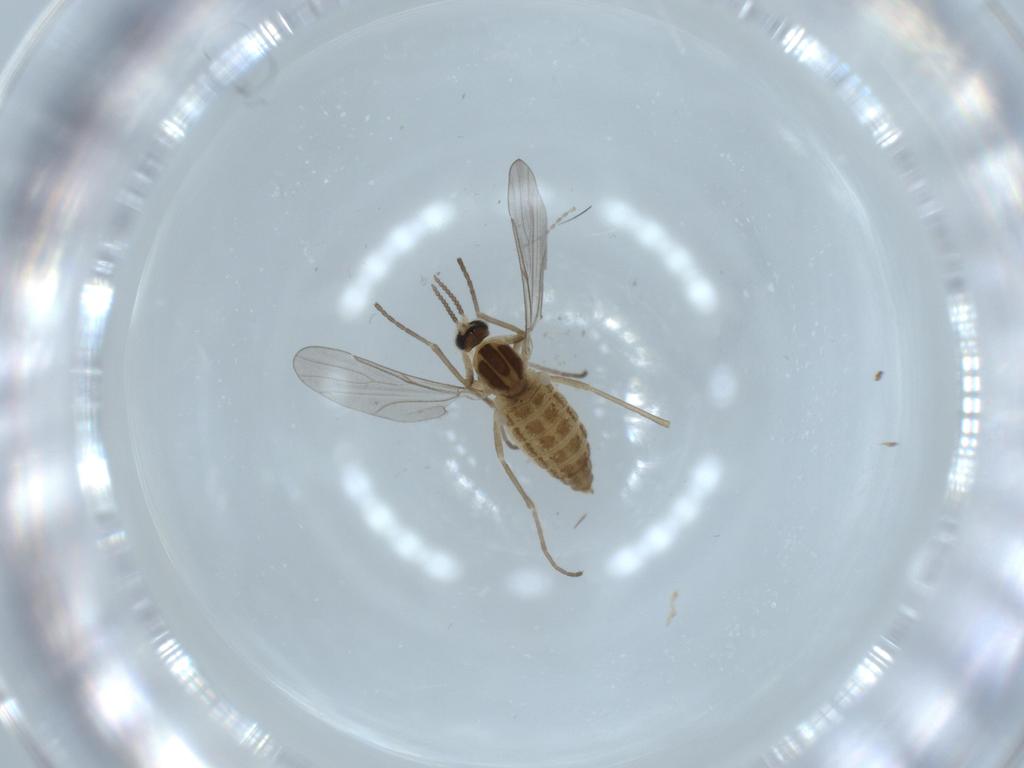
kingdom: Animalia
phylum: Arthropoda
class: Insecta
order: Diptera
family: Cecidomyiidae
